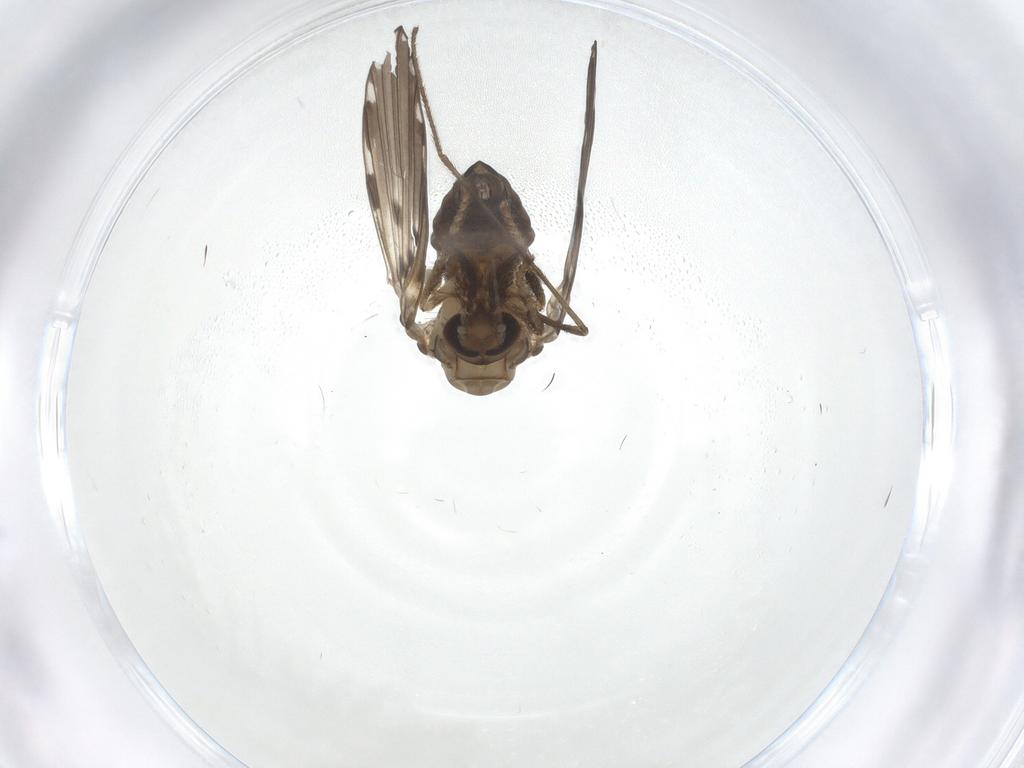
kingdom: Animalia
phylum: Arthropoda
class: Insecta
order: Diptera
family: Psychodidae
